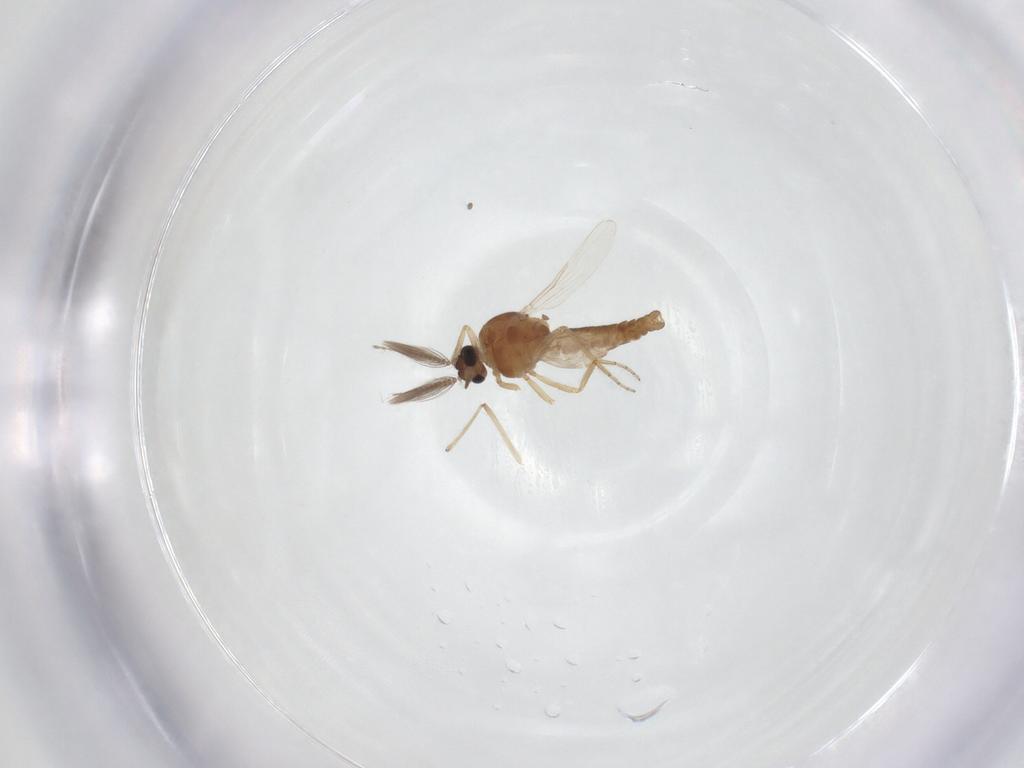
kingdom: Animalia
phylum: Arthropoda
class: Insecta
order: Diptera
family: Ceratopogonidae
